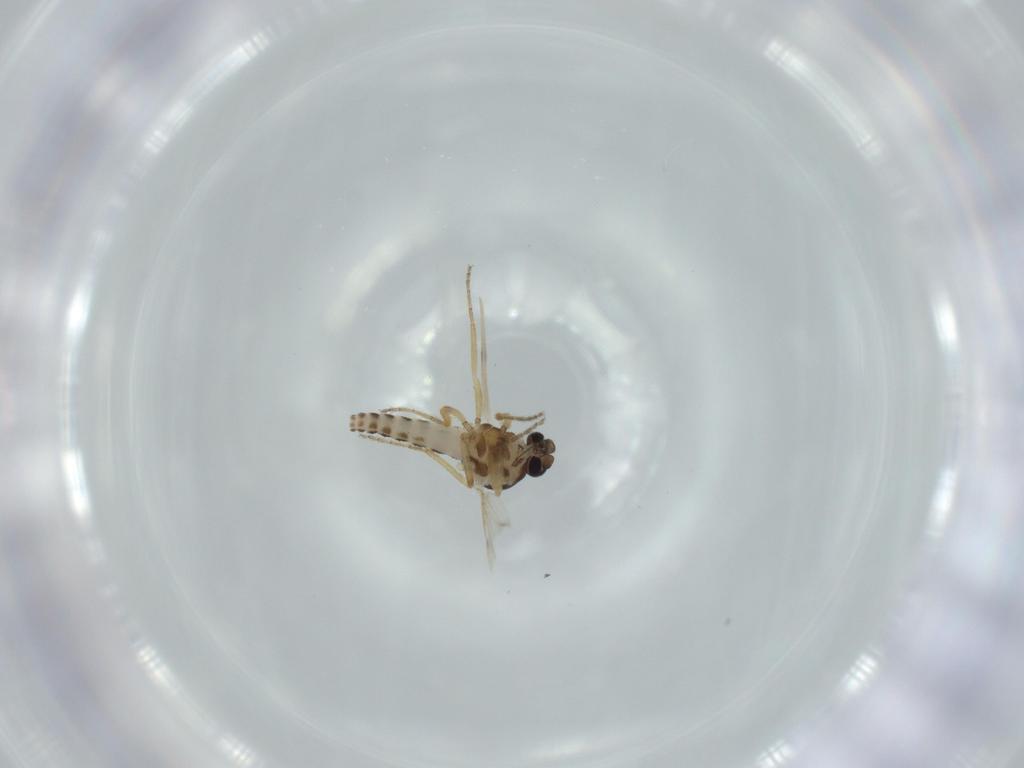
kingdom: Animalia
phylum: Arthropoda
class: Insecta
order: Diptera
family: Ceratopogonidae
